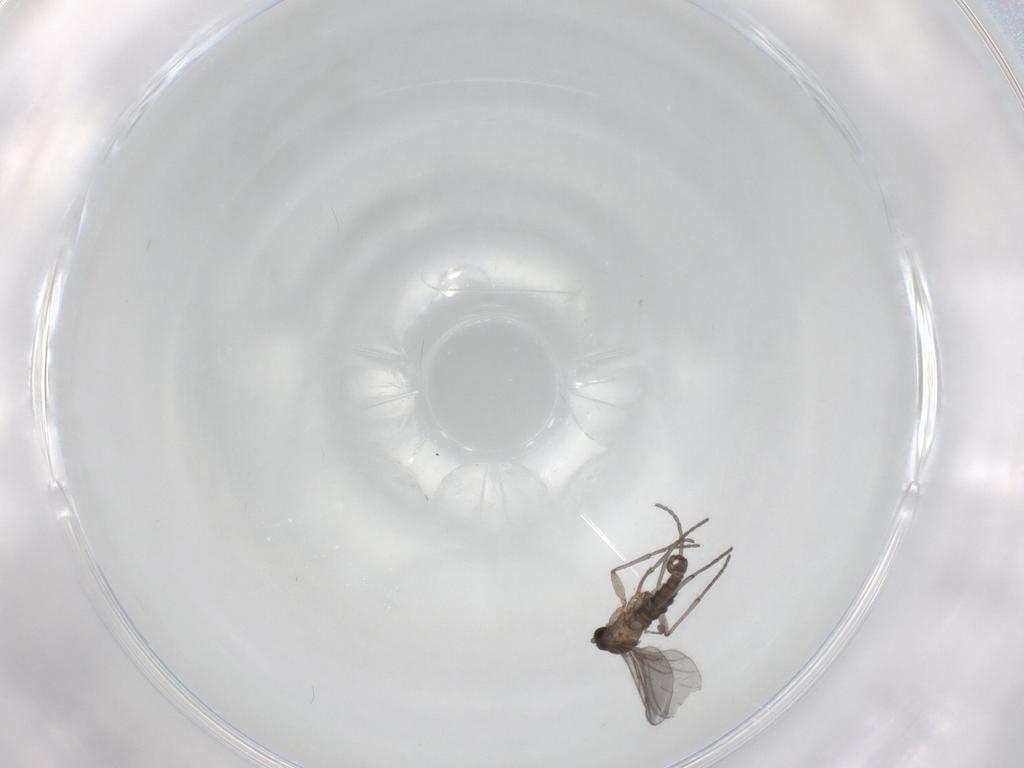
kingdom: Animalia
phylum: Arthropoda
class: Insecta
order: Diptera
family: Sciaridae
